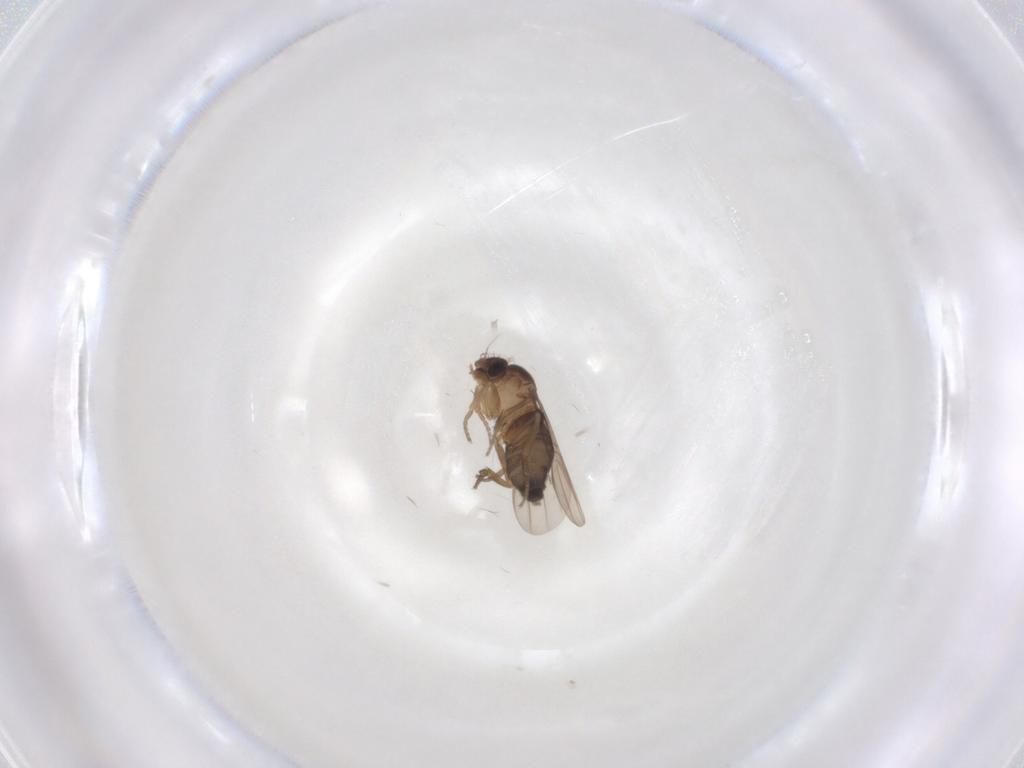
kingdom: Animalia
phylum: Arthropoda
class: Insecta
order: Diptera
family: Phoridae
